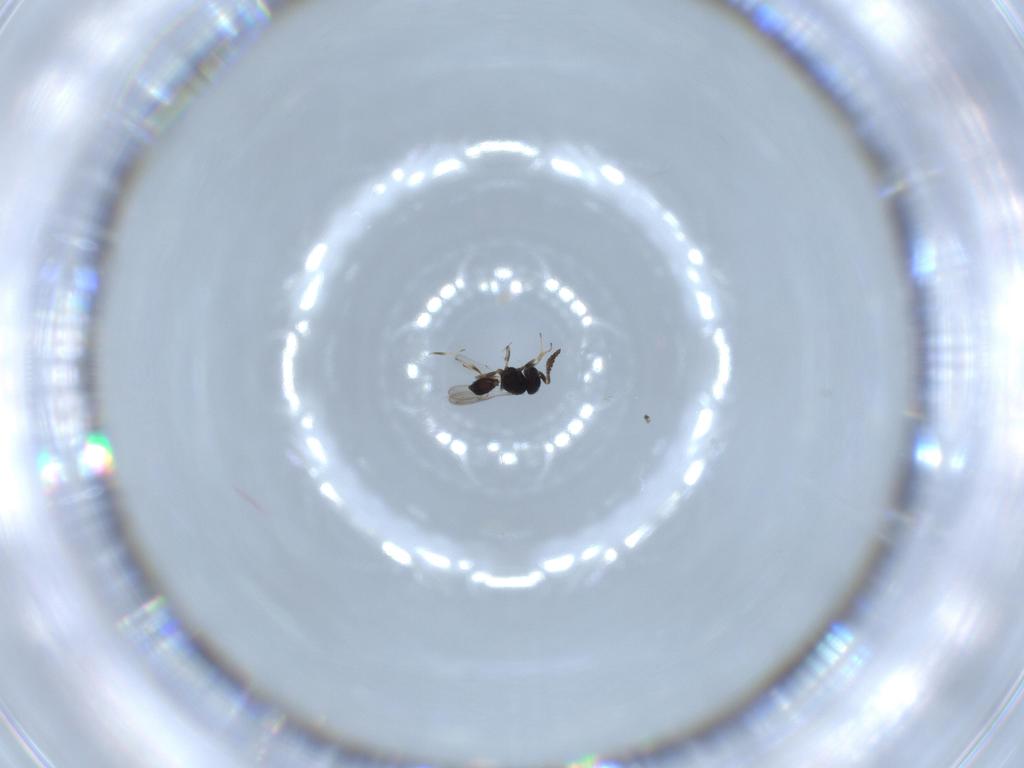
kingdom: Animalia
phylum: Arthropoda
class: Insecta
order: Hymenoptera
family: Scelionidae
